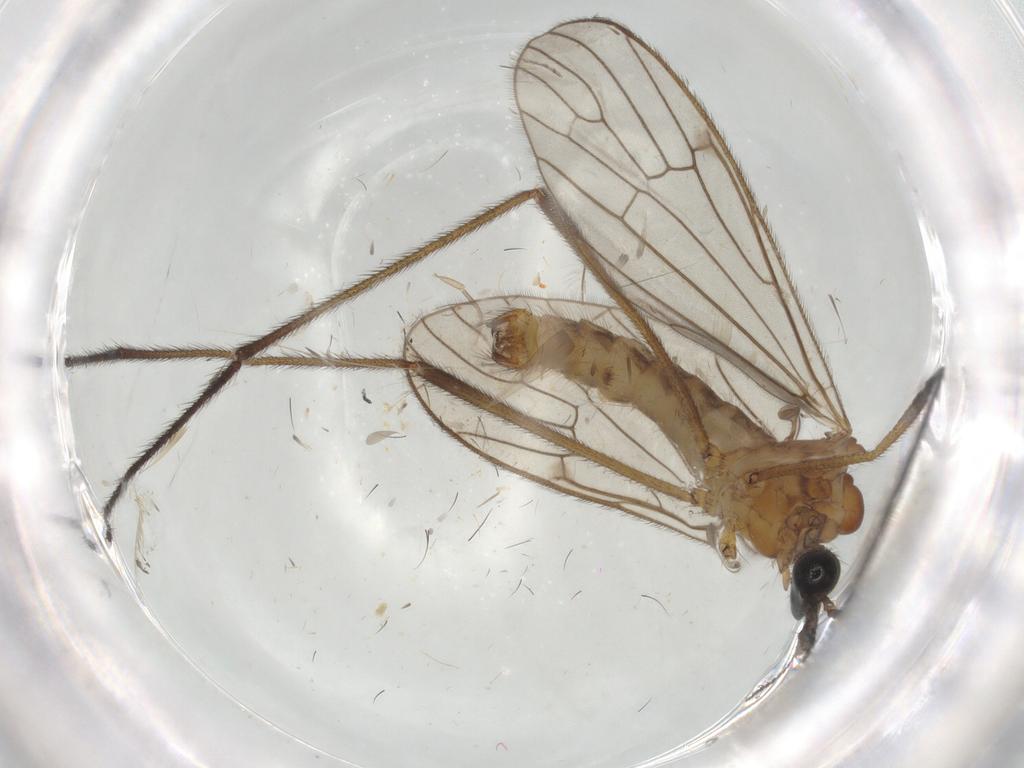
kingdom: Animalia
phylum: Arthropoda
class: Insecta
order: Diptera
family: Limoniidae
